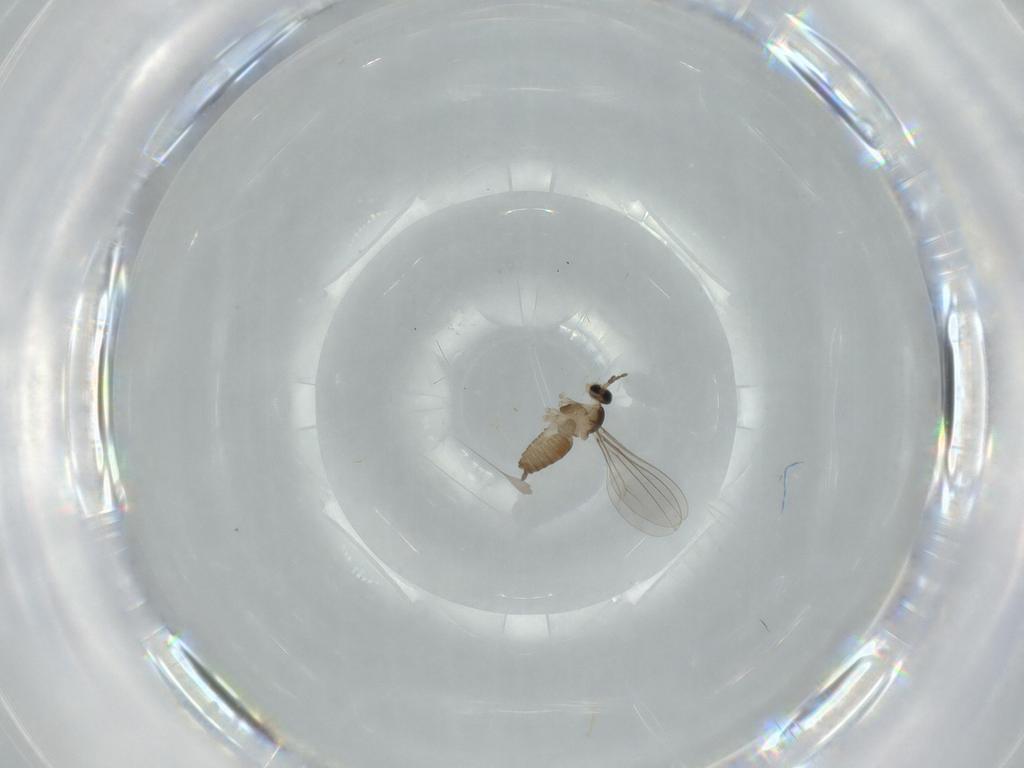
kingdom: Animalia
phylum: Arthropoda
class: Insecta
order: Diptera
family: Cecidomyiidae
